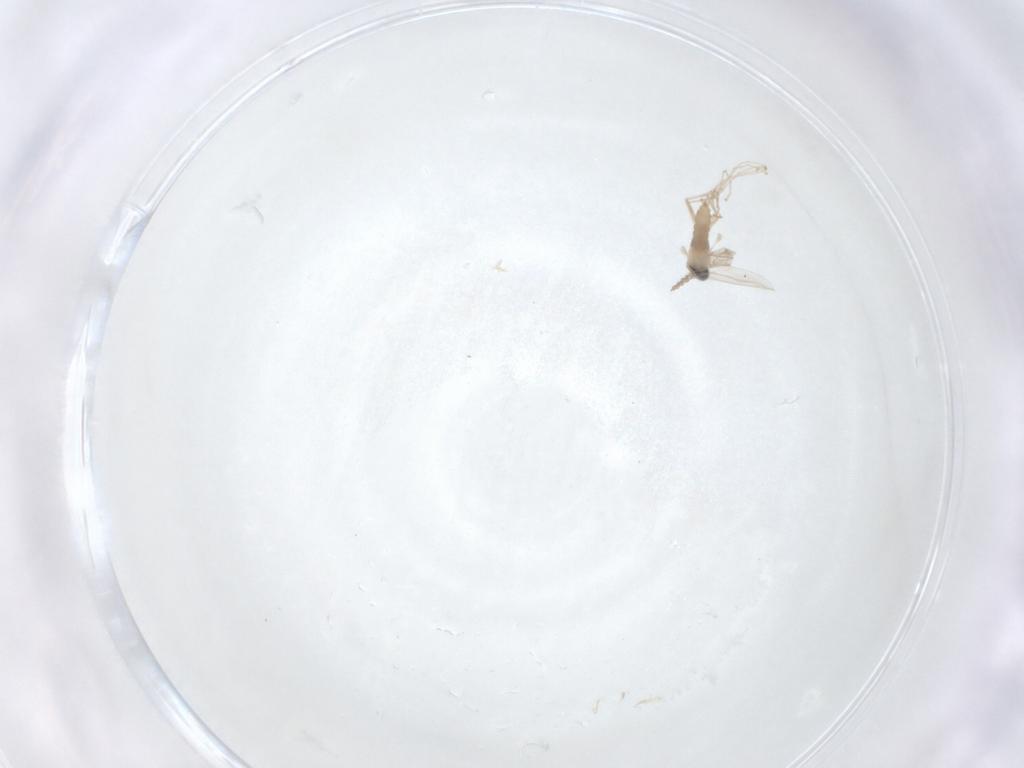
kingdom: Animalia
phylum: Arthropoda
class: Insecta
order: Diptera
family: Cecidomyiidae
